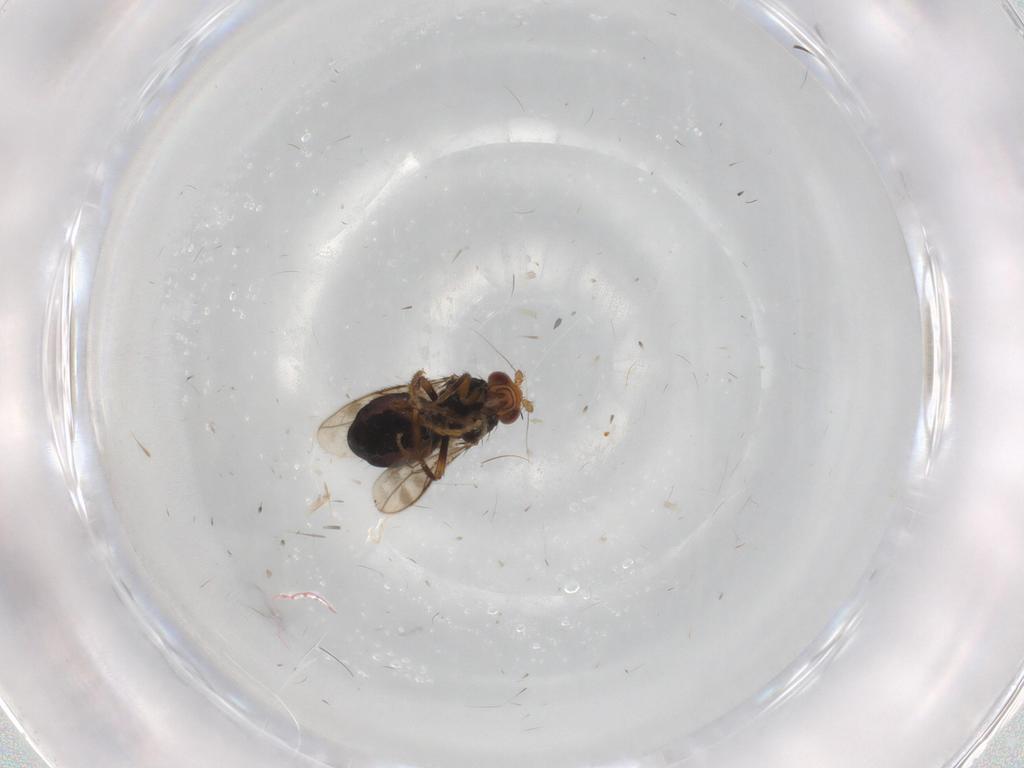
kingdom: Animalia
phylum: Arthropoda
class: Insecta
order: Diptera
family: Sphaeroceridae
